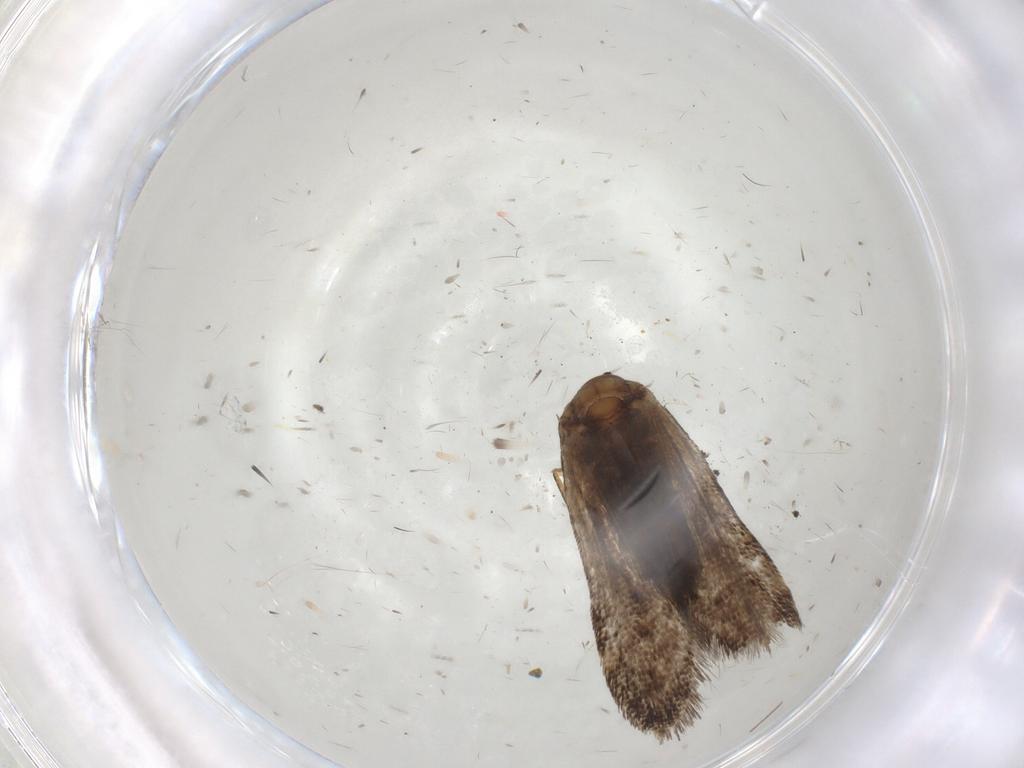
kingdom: Animalia
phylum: Arthropoda
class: Insecta
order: Lepidoptera
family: Noctuidae
